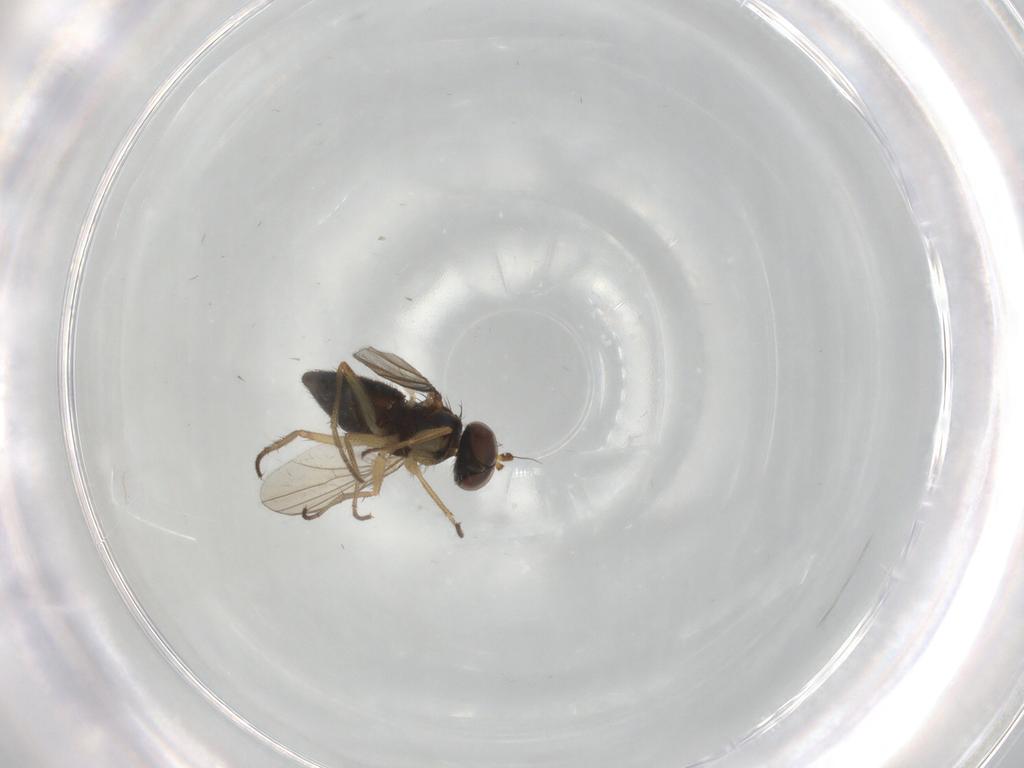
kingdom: Animalia
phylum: Arthropoda
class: Insecta
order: Diptera
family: Dolichopodidae
